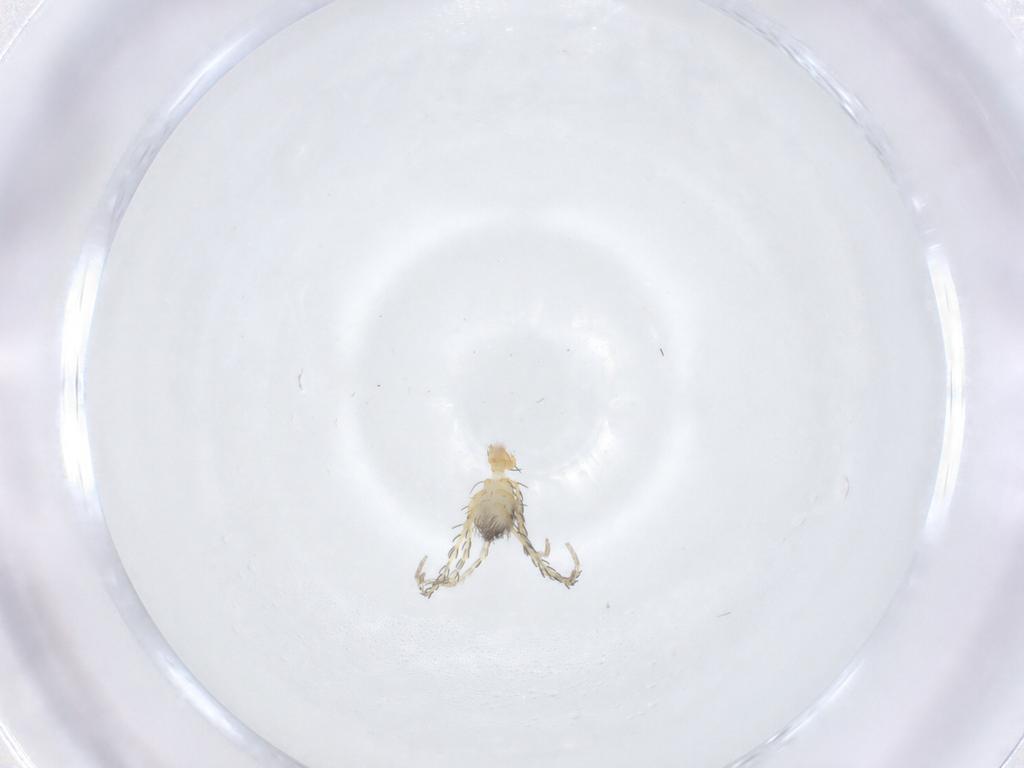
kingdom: Animalia
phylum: Arthropoda
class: Arachnida
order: Trombidiformes
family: Erythraeidae
